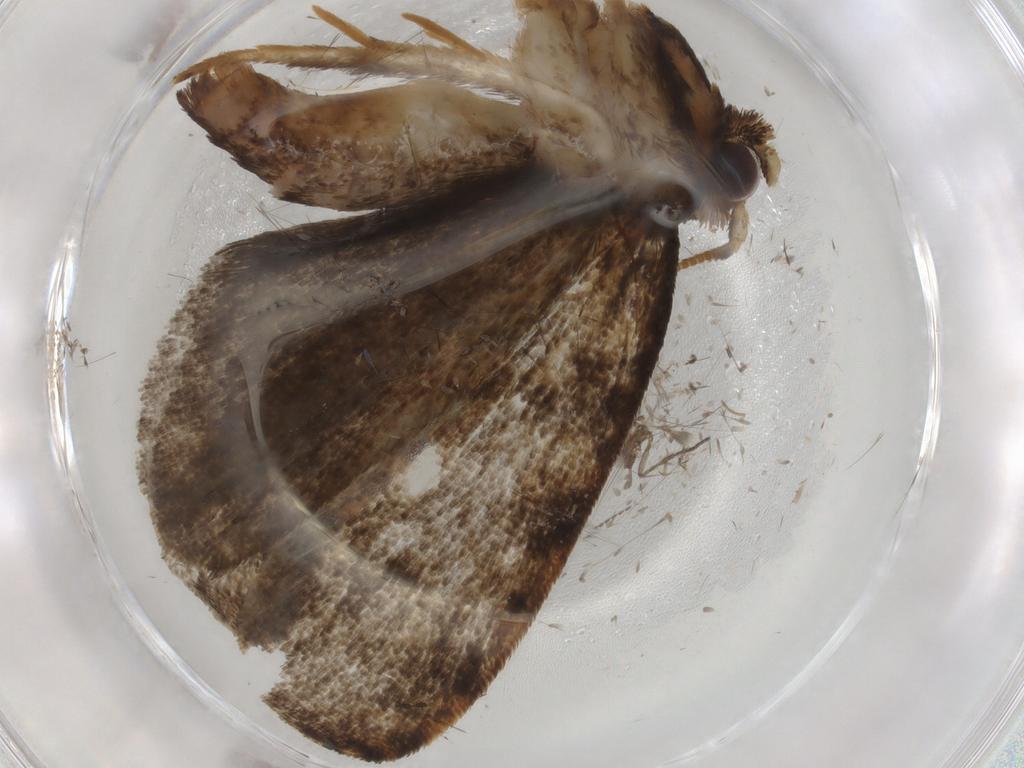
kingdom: Animalia
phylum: Arthropoda
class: Insecta
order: Lepidoptera
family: Tineidae
